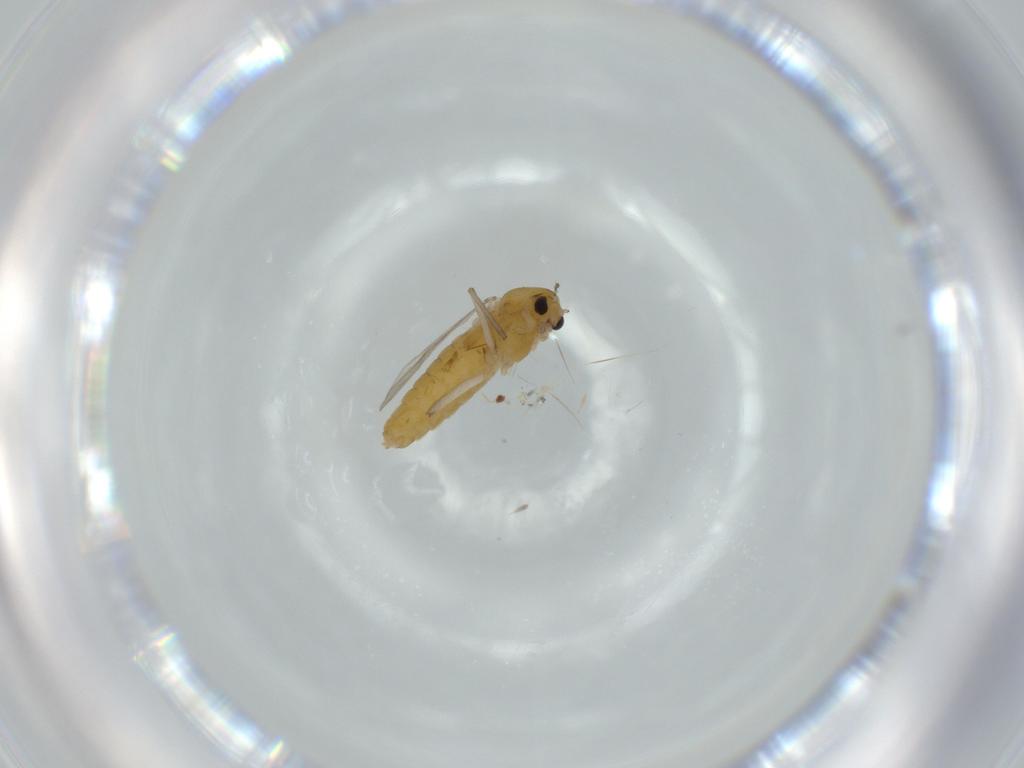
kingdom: Animalia
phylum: Arthropoda
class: Insecta
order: Diptera
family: Chironomidae
